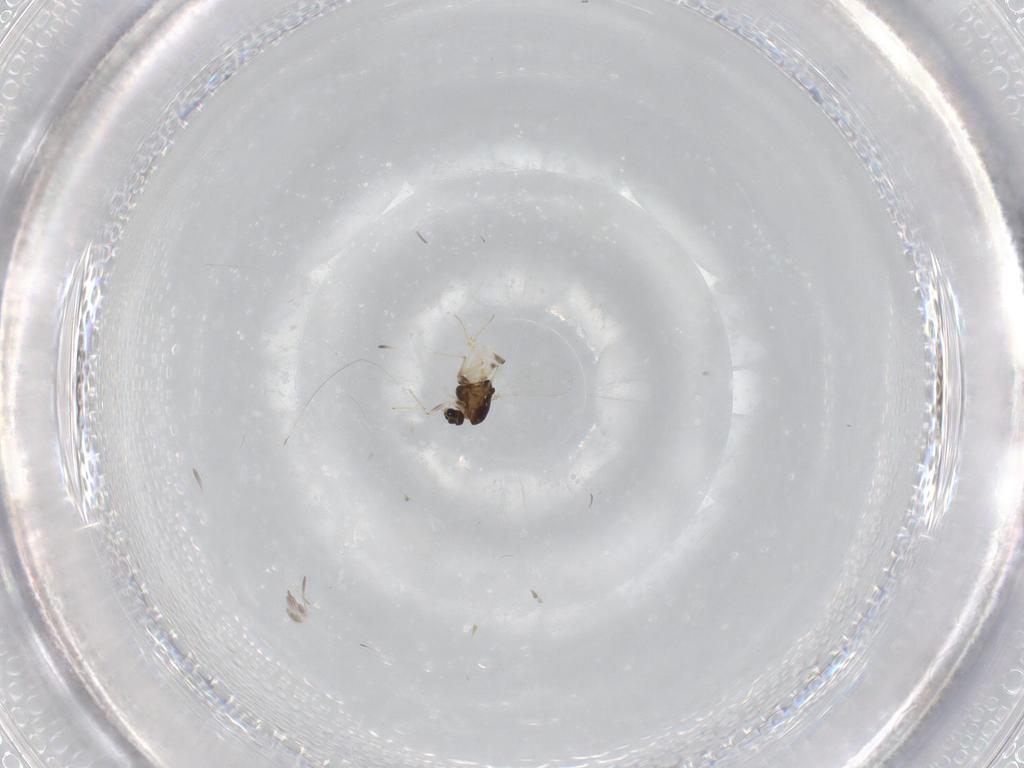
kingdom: Animalia
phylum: Arthropoda
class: Insecta
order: Diptera
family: Chironomidae
